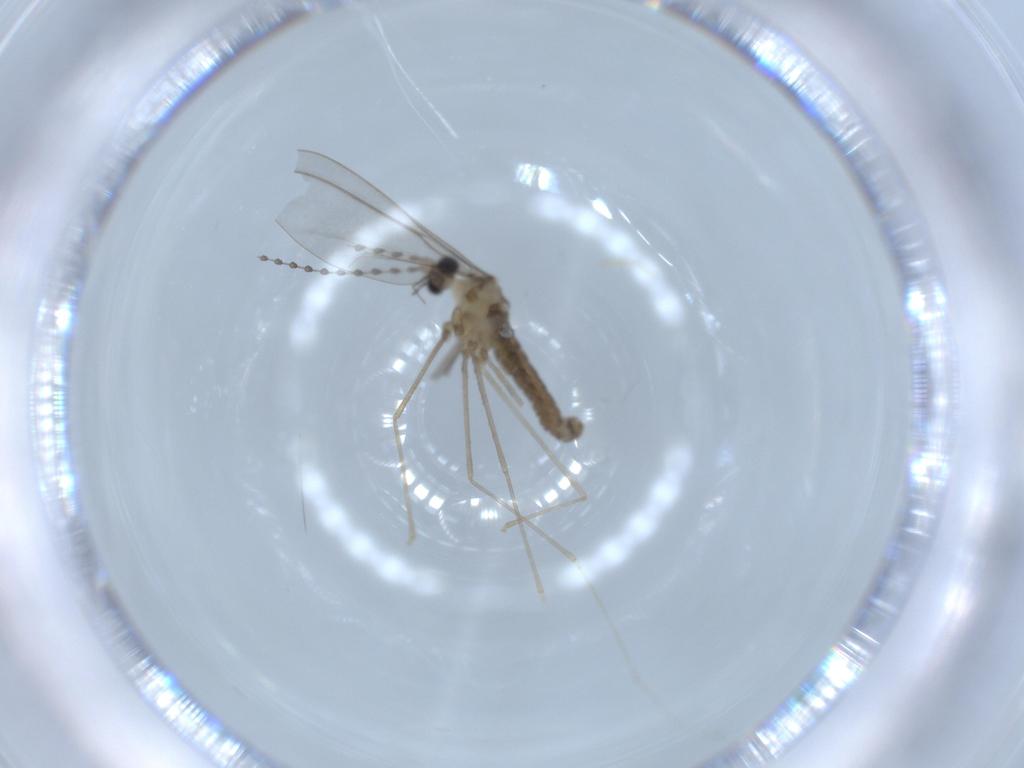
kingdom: Animalia
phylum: Arthropoda
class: Insecta
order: Diptera
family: Cecidomyiidae
